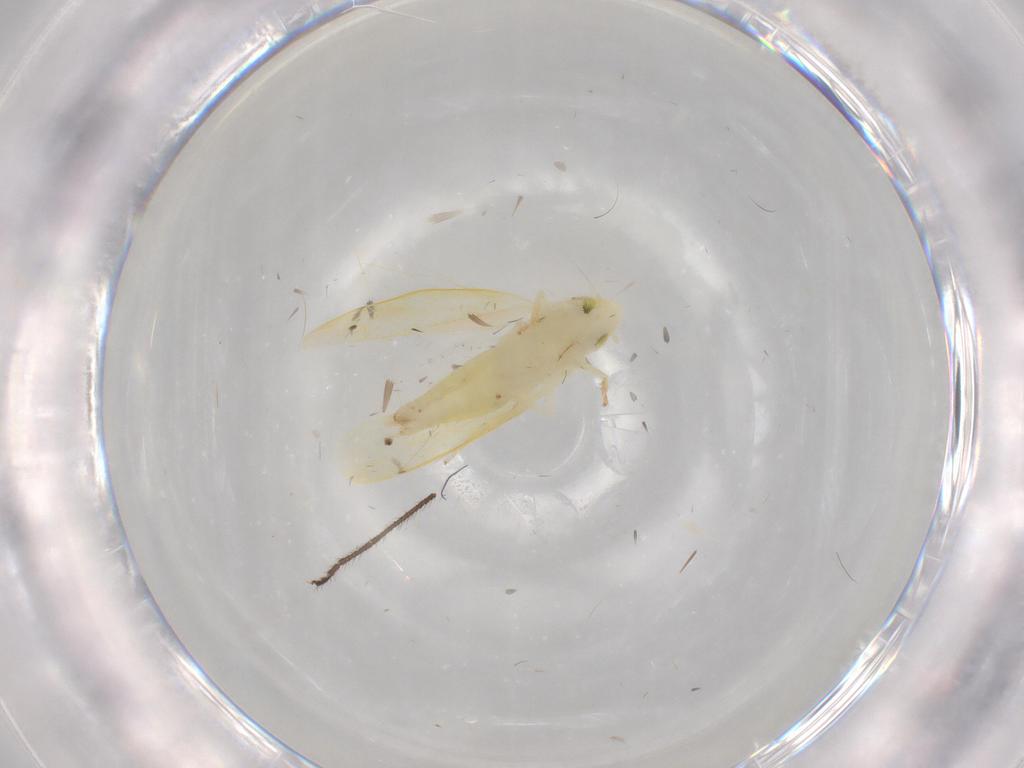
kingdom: Animalia
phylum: Arthropoda
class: Insecta
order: Hemiptera
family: Cicadellidae
